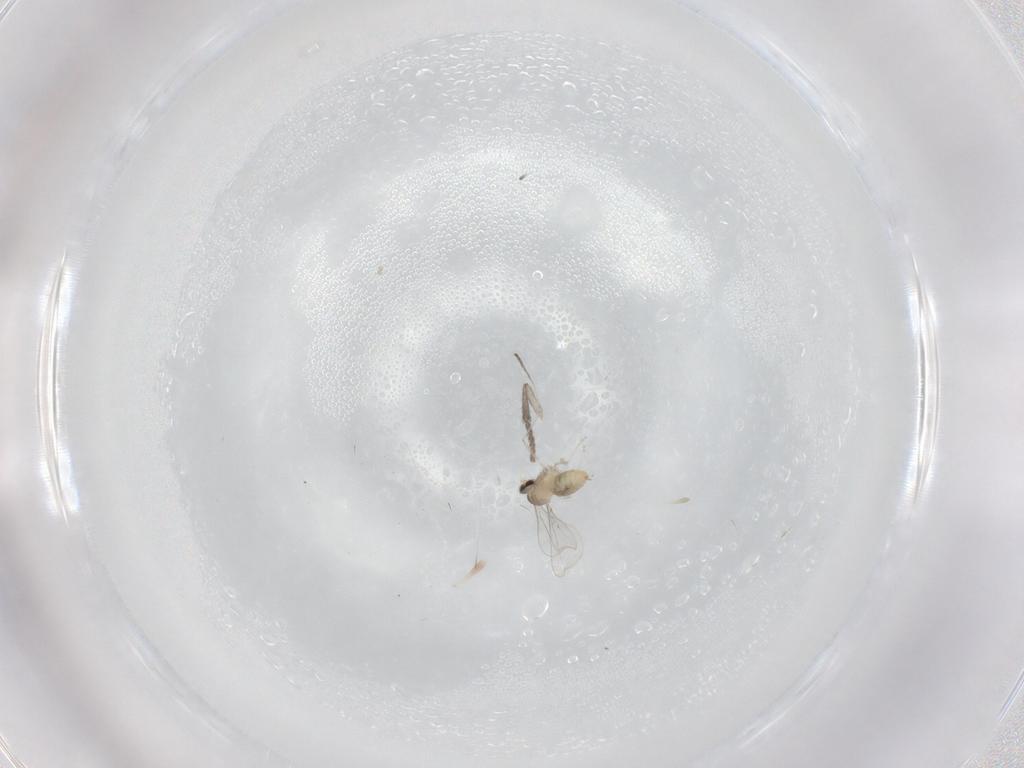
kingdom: Animalia
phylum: Arthropoda
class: Insecta
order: Diptera
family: Cecidomyiidae
